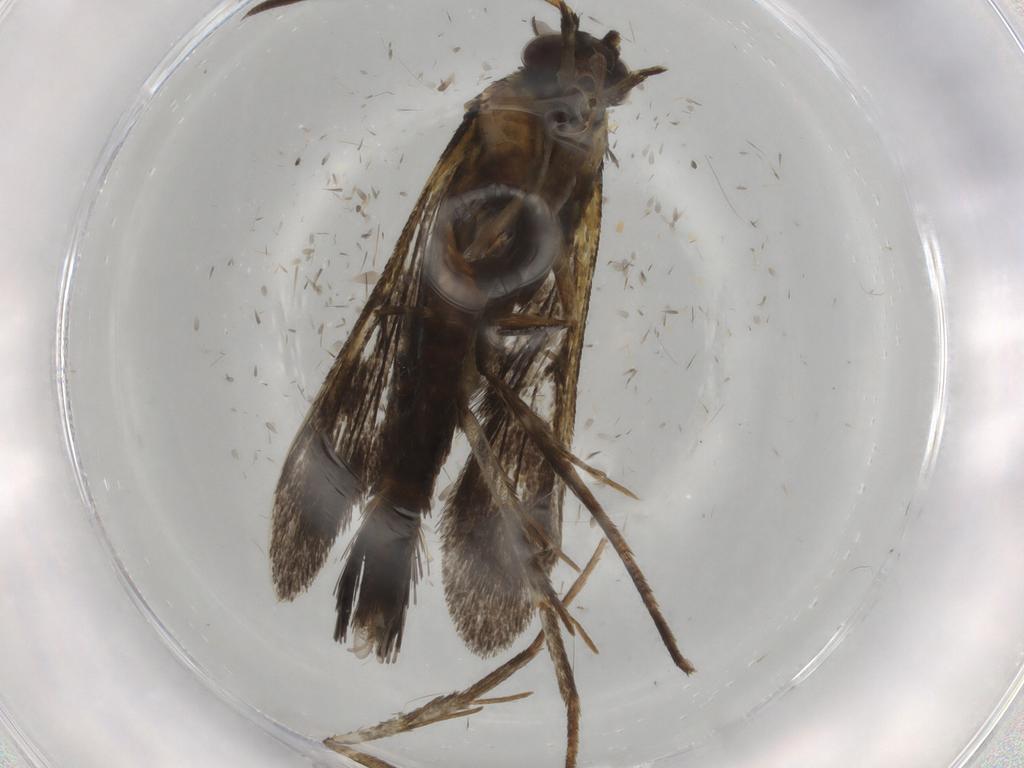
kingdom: Animalia
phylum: Arthropoda
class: Insecta
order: Lepidoptera
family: Sesiidae
